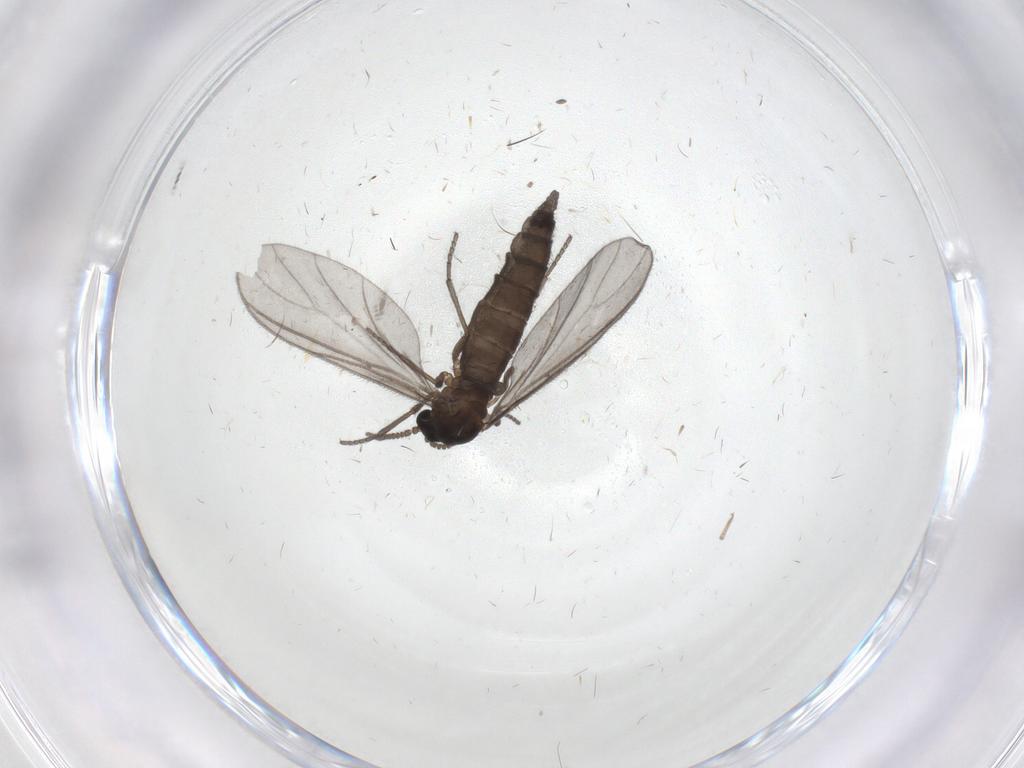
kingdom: Animalia
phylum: Arthropoda
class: Insecta
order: Diptera
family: Sciaridae
